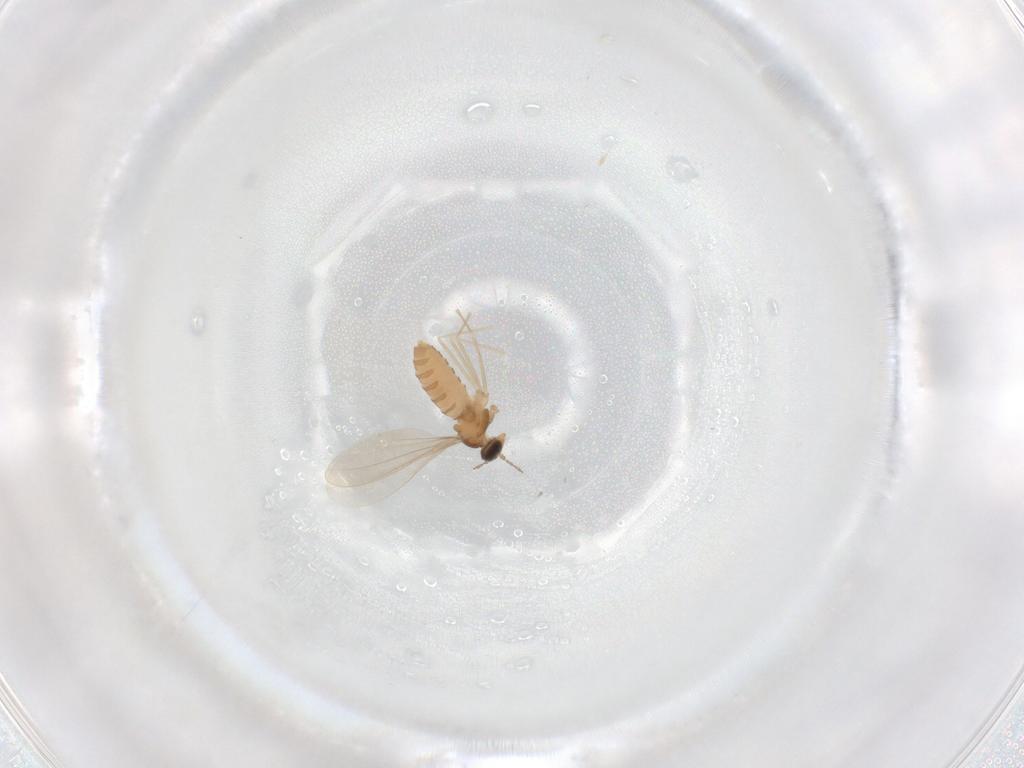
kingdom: Animalia
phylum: Arthropoda
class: Insecta
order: Diptera
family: Cecidomyiidae
